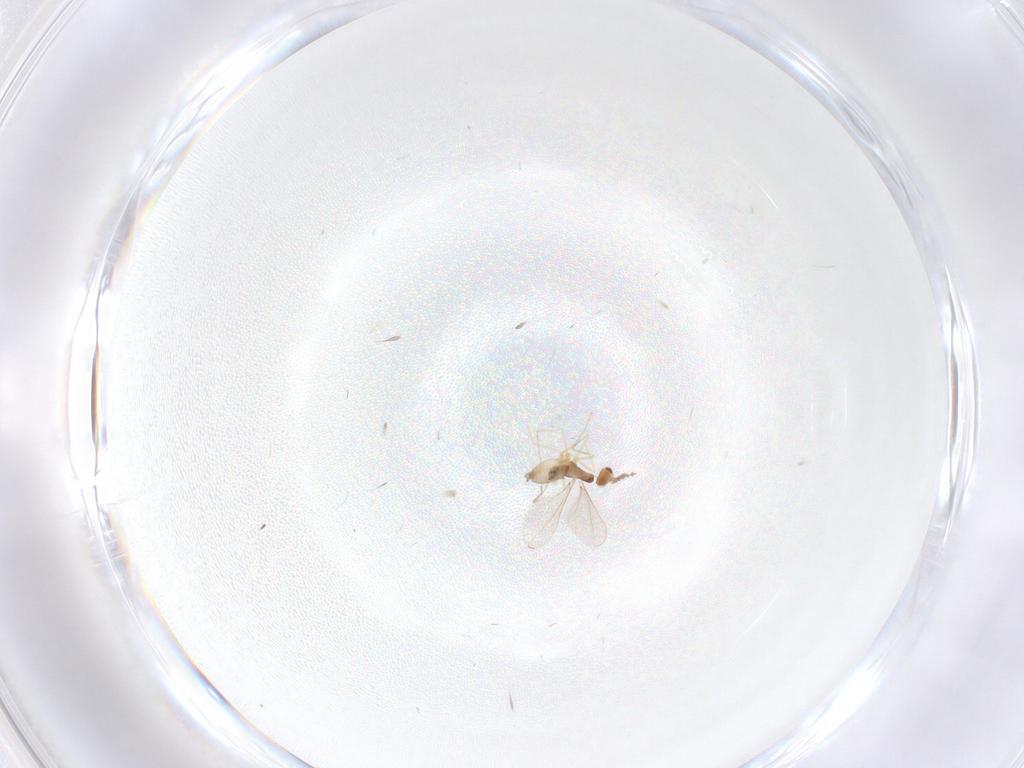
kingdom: Animalia
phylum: Arthropoda
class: Insecta
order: Diptera
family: Cecidomyiidae
